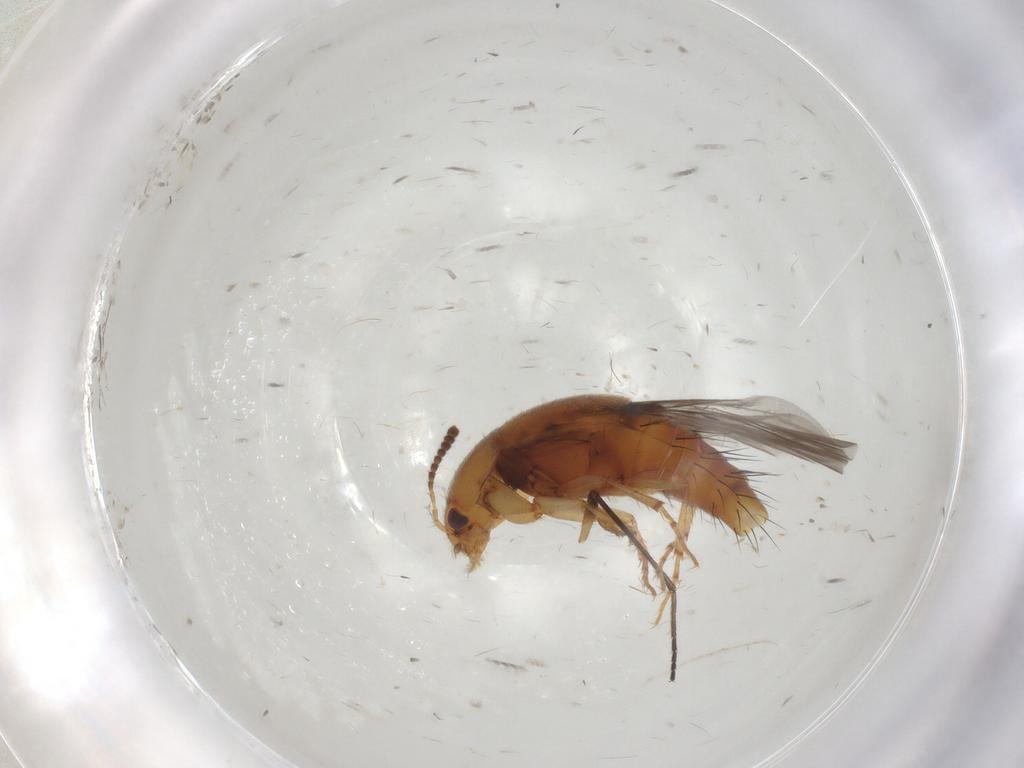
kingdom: Animalia
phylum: Arthropoda
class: Insecta
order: Coleoptera
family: Staphylinidae
